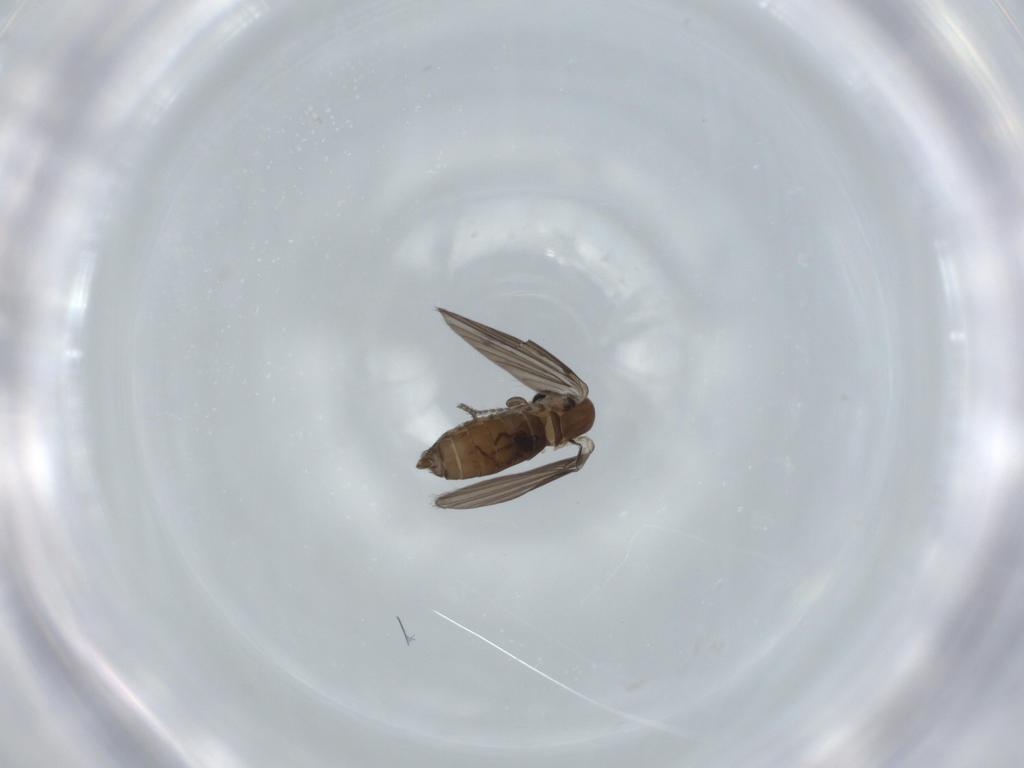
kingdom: Animalia
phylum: Arthropoda
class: Insecta
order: Diptera
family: Psychodidae
